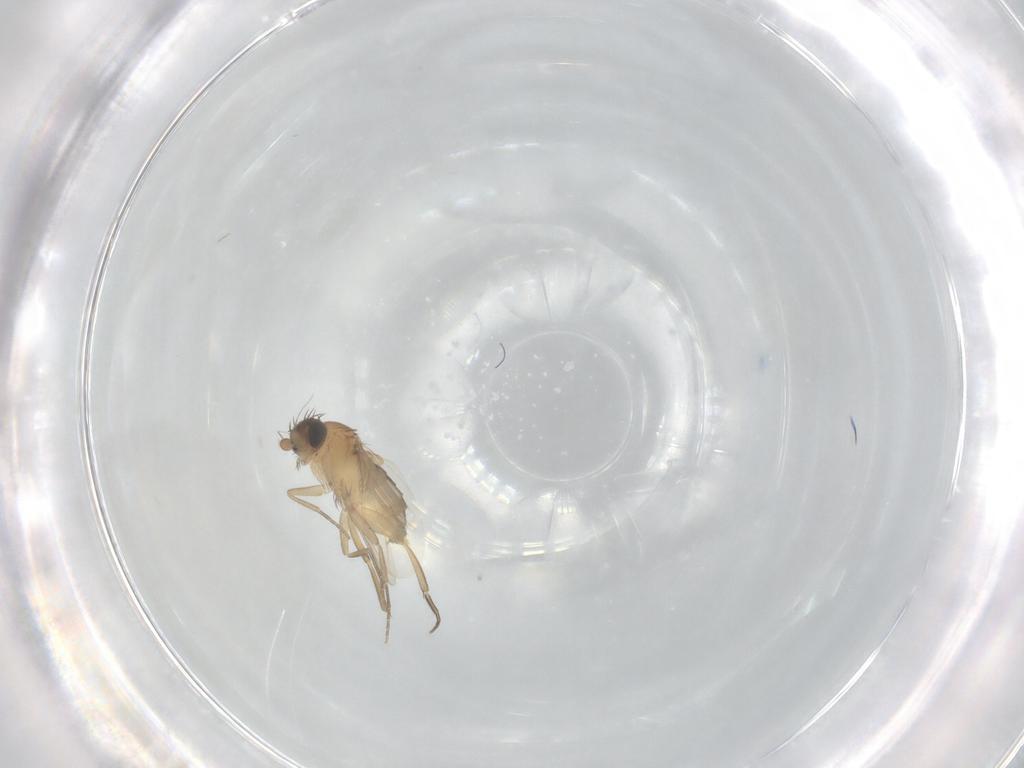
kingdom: Animalia
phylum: Arthropoda
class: Insecta
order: Diptera
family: Phoridae
